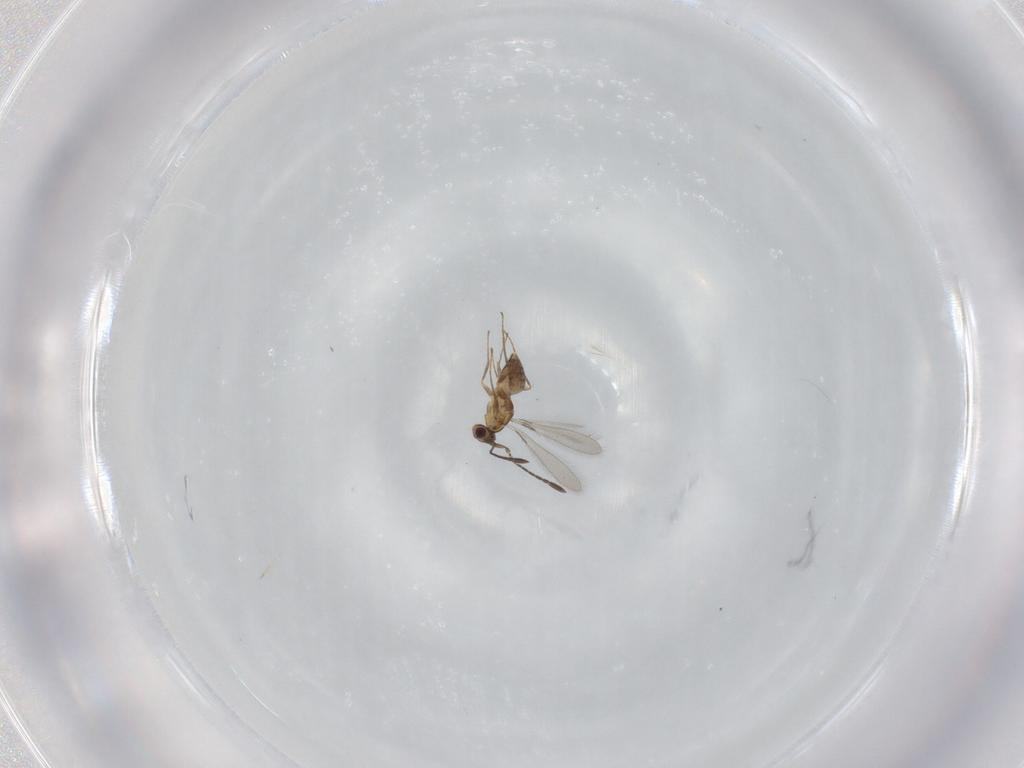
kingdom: Animalia
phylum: Arthropoda
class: Insecta
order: Hymenoptera
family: Mymaridae
